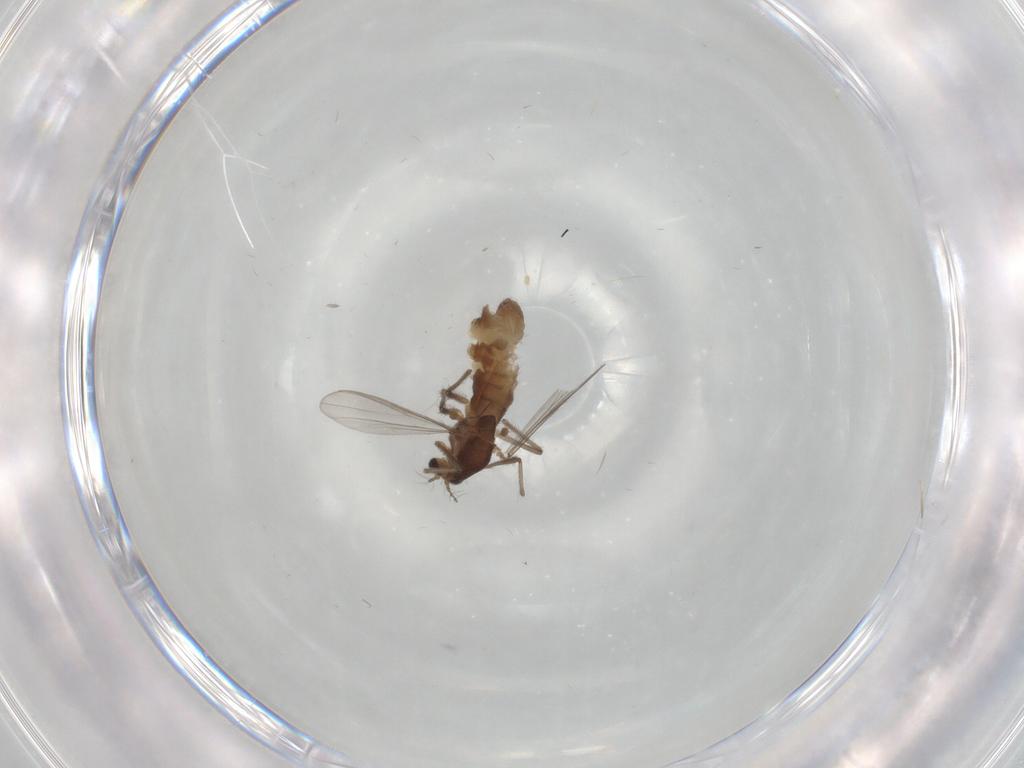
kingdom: Animalia
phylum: Arthropoda
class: Insecta
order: Diptera
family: Chironomidae
